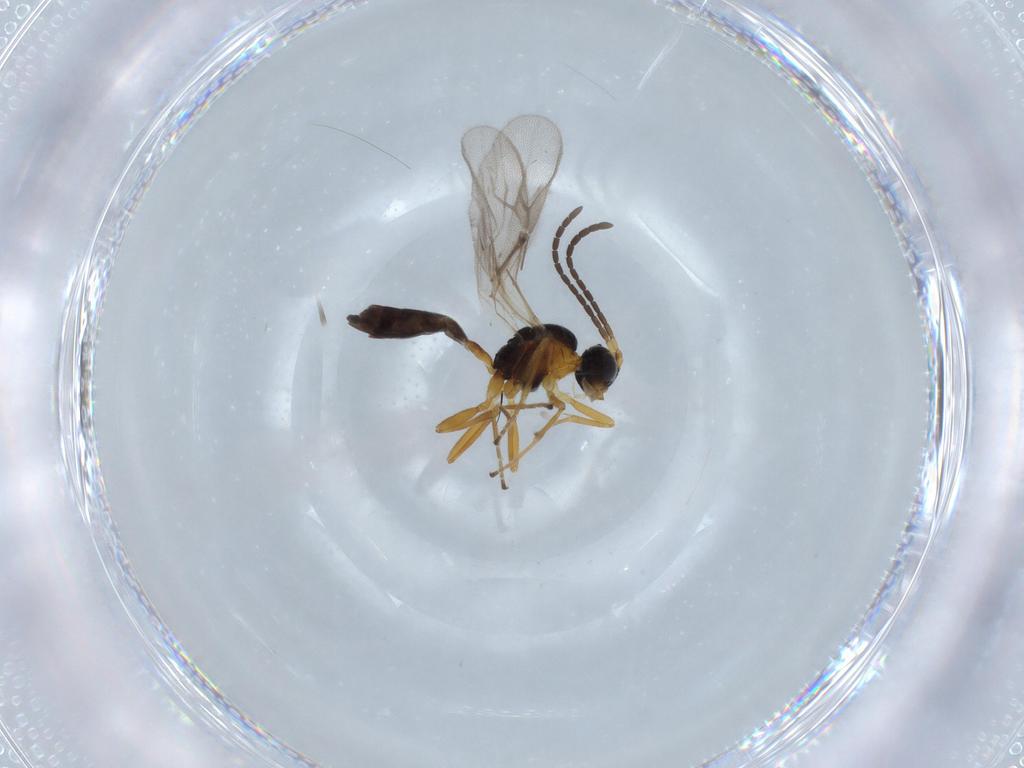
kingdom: Animalia
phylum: Arthropoda
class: Insecta
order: Hymenoptera
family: Braconidae
